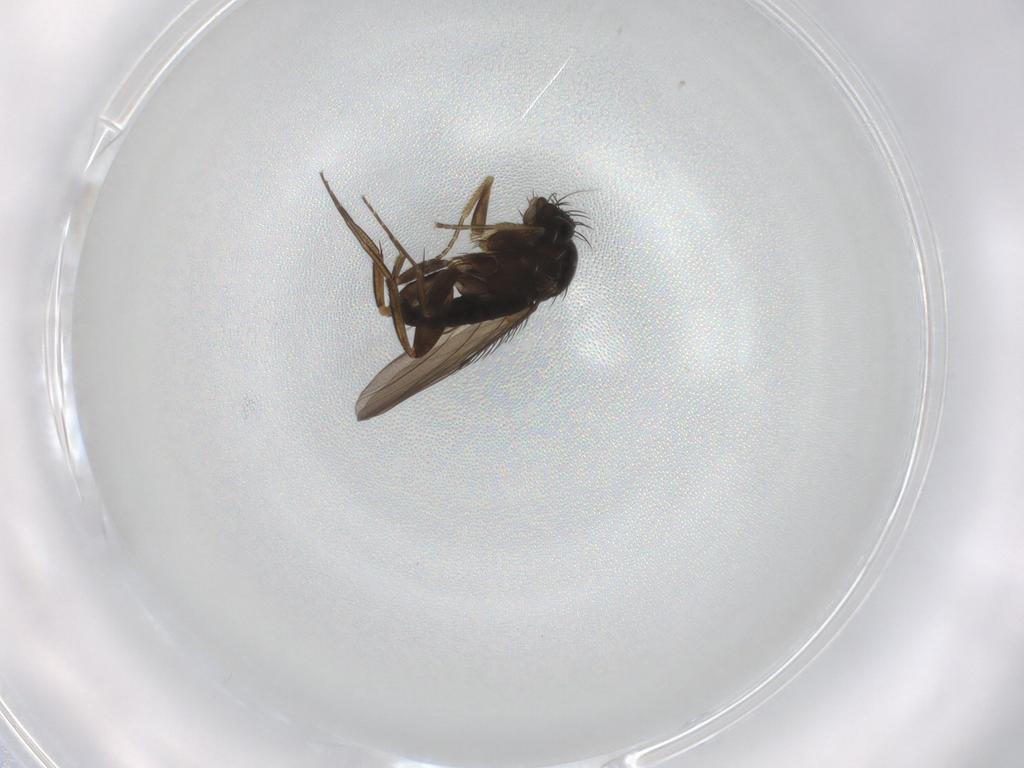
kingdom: Animalia
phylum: Arthropoda
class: Insecta
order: Diptera
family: Phoridae
